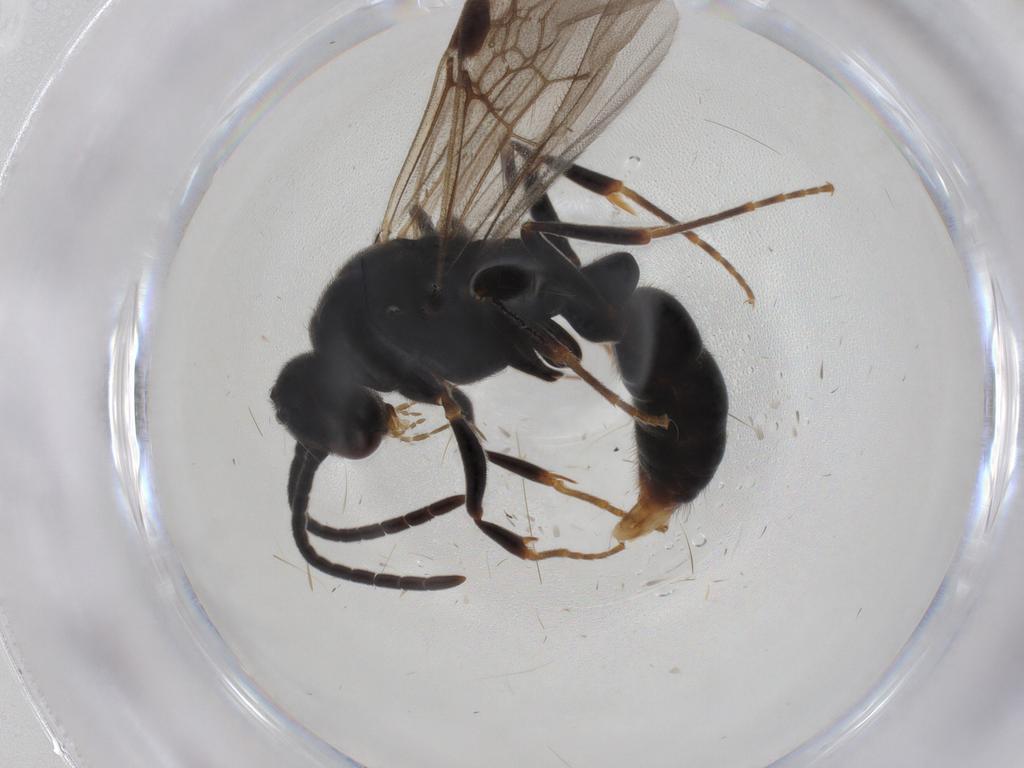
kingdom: Animalia
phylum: Arthropoda
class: Insecta
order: Hymenoptera
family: Formicidae
